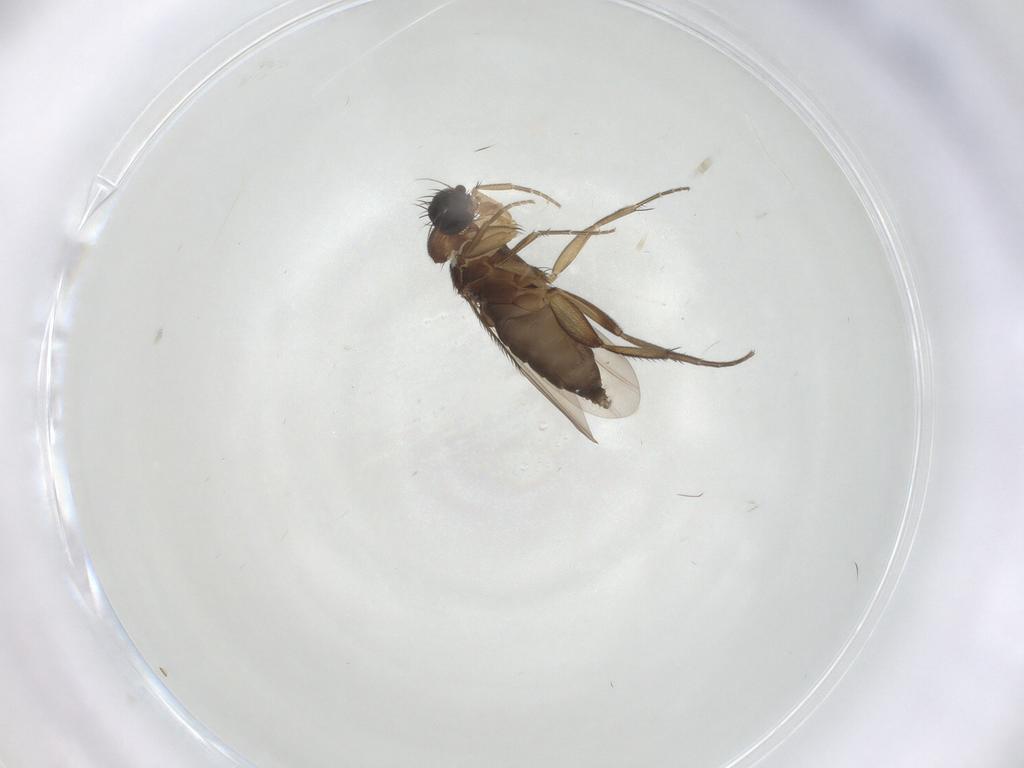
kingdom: Animalia
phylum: Arthropoda
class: Insecta
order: Diptera
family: Phoridae
